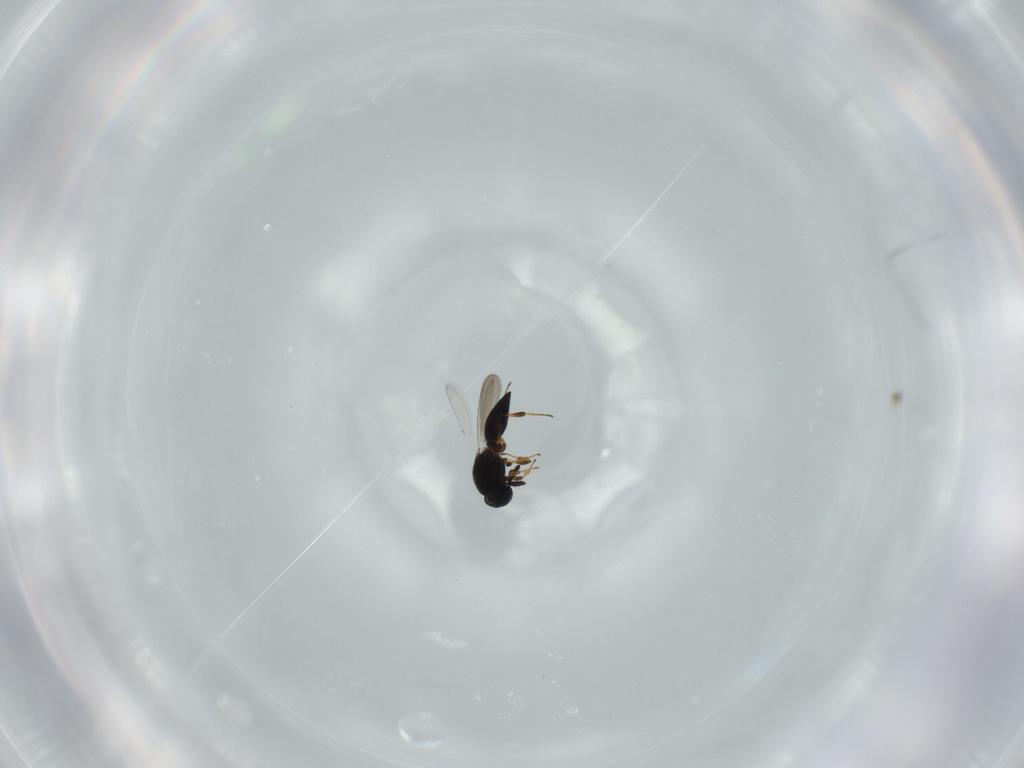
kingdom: Animalia
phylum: Arthropoda
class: Insecta
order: Hymenoptera
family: Platygastridae
